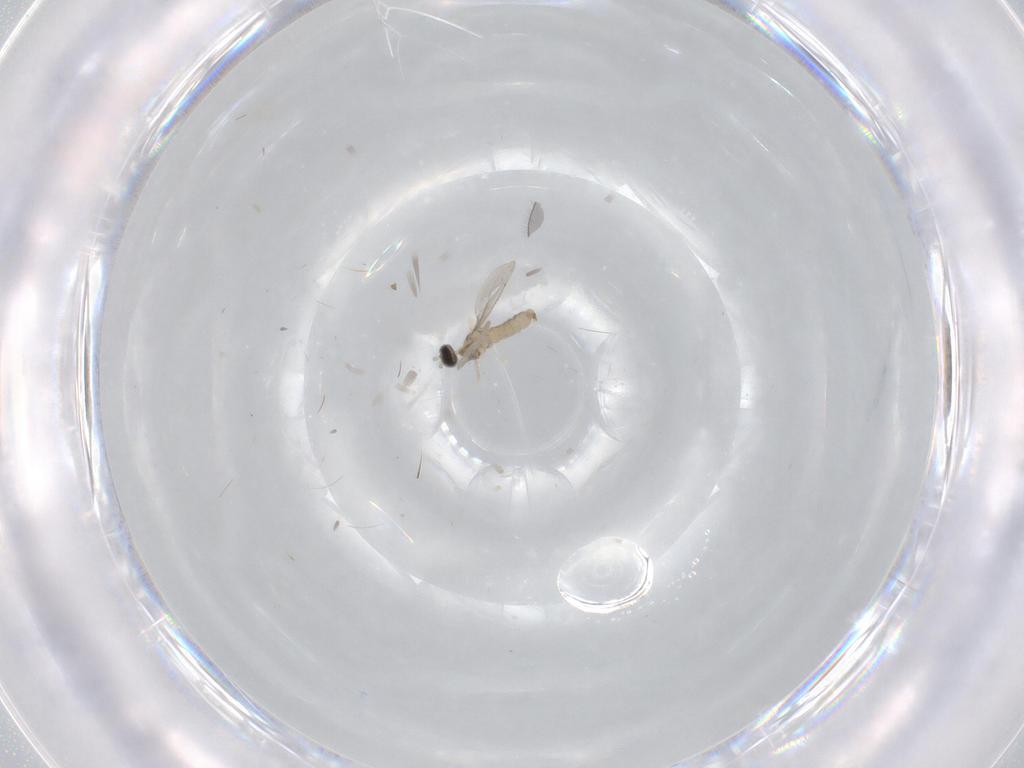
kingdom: Animalia
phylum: Arthropoda
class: Insecta
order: Diptera
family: Cecidomyiidae
